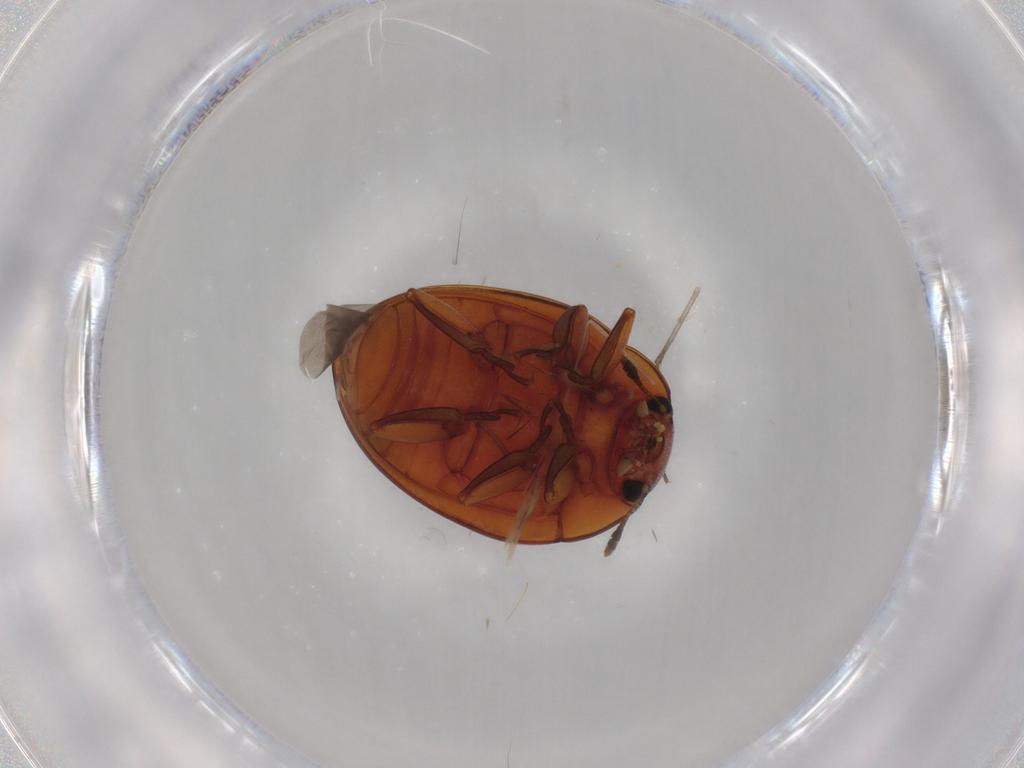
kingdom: Animalia
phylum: Arthropoda
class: Insecta
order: Coleoptera
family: Erotylidae
